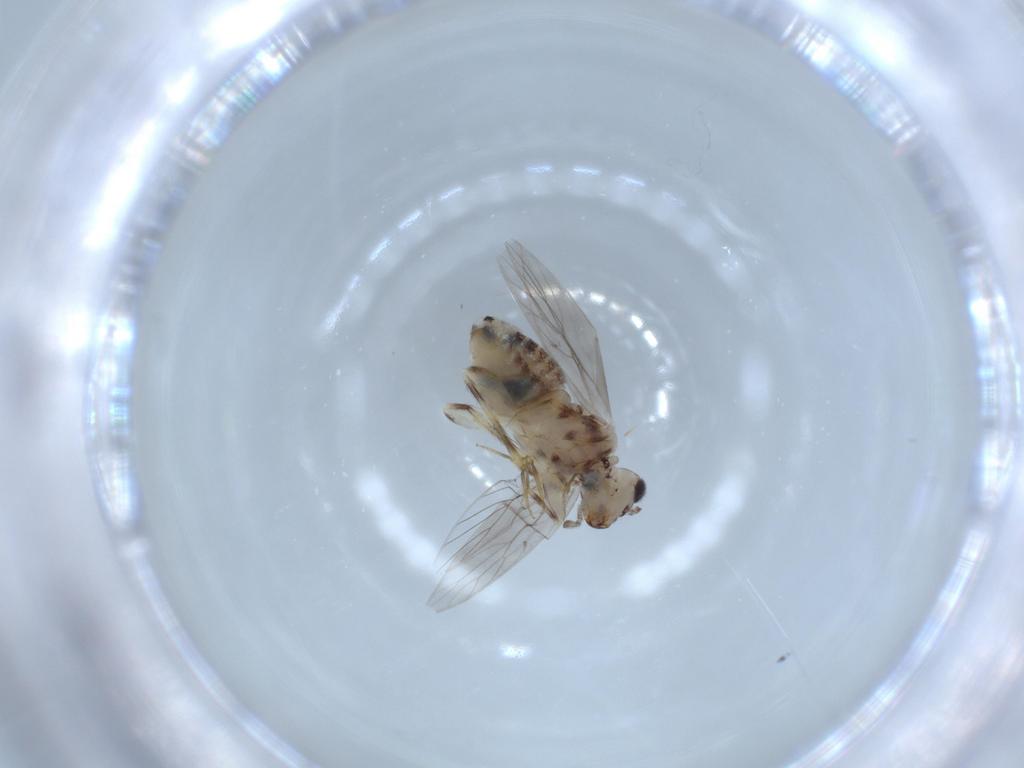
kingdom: Animalia
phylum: Arthropoda
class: Insecta
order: Psocodea
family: Lepidopsocidae
